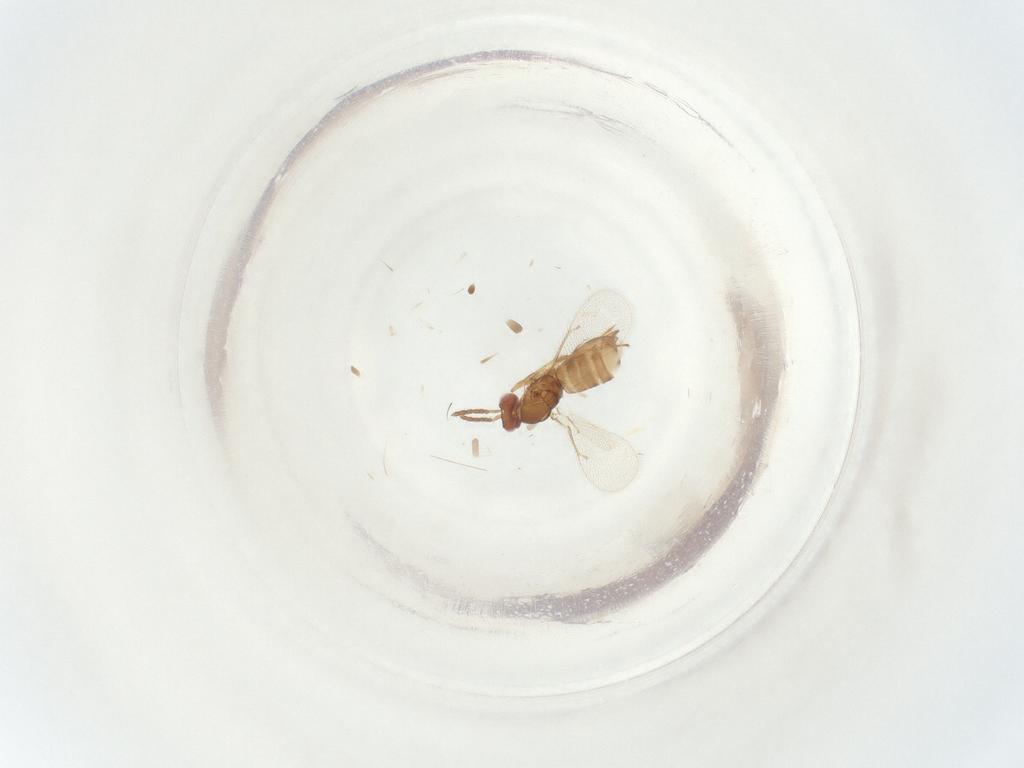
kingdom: Animalia
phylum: Arthropoda
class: Insecta
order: Hymenoptera
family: Eulophidae
